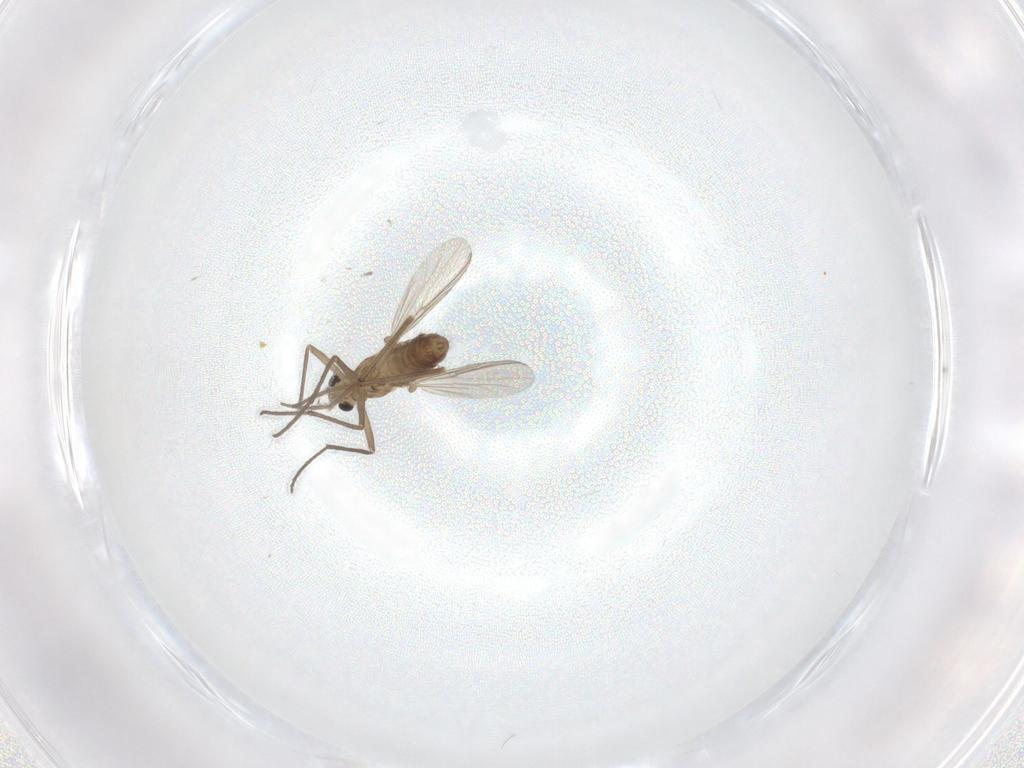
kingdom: Animalia
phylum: Arthropoda
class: Insecta
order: Diptera
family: Chironomidae
